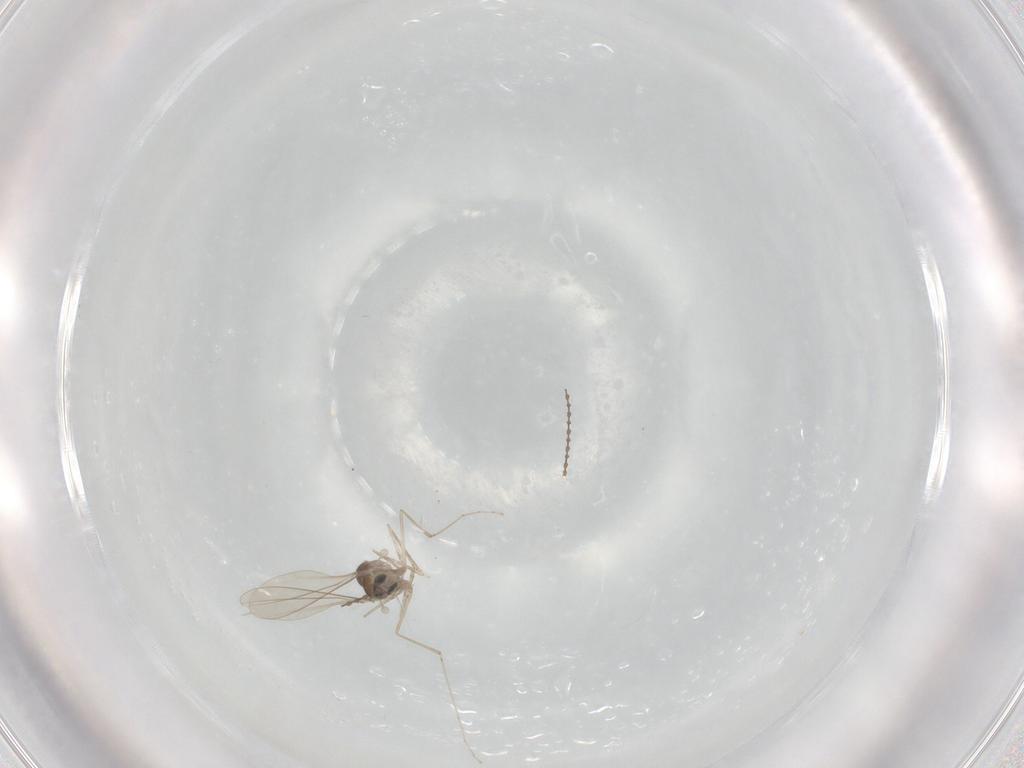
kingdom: Animalia
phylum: Arthropoda
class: Insecta
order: Diptera
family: Cecidomyiidae
